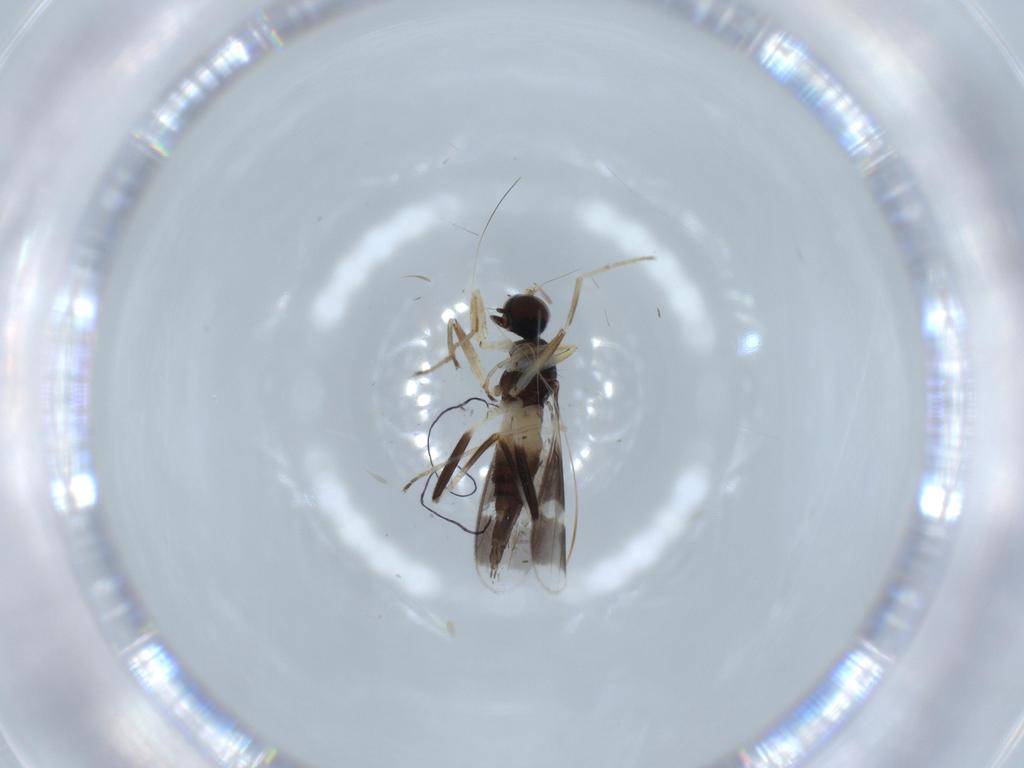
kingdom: Animalia
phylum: Arthropoda
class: Insecta
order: Diptera
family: Hybotidae
